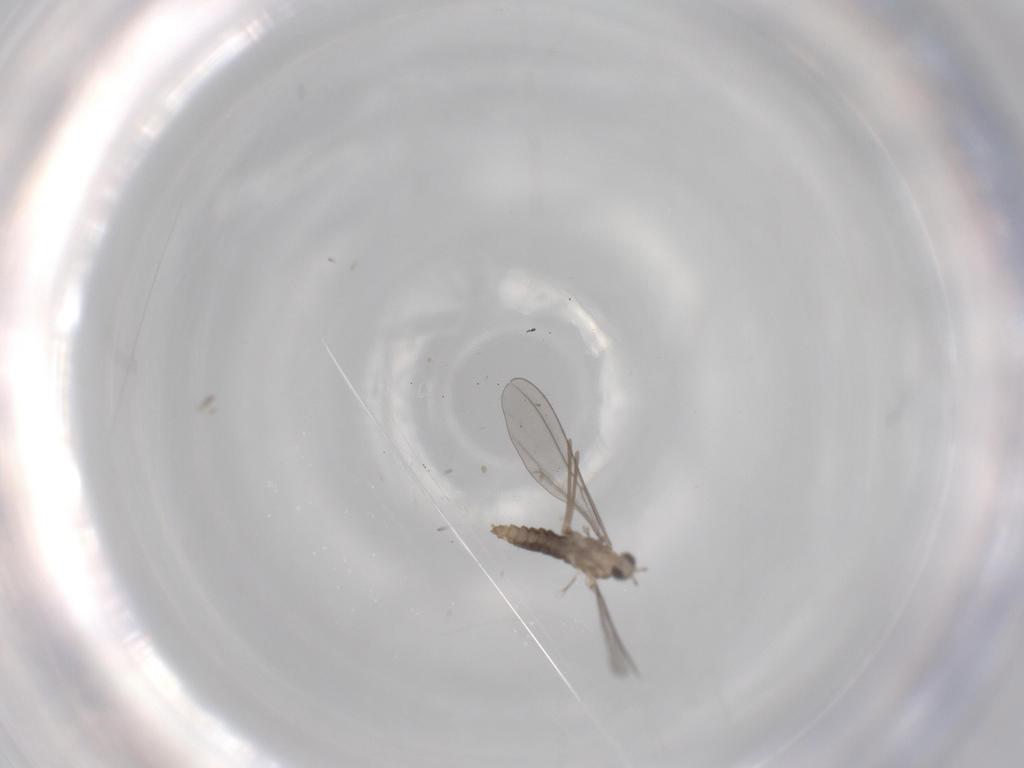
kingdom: Animalia
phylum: Arthropoda
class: Insecta
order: Diptera
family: Cecidomyiidae
